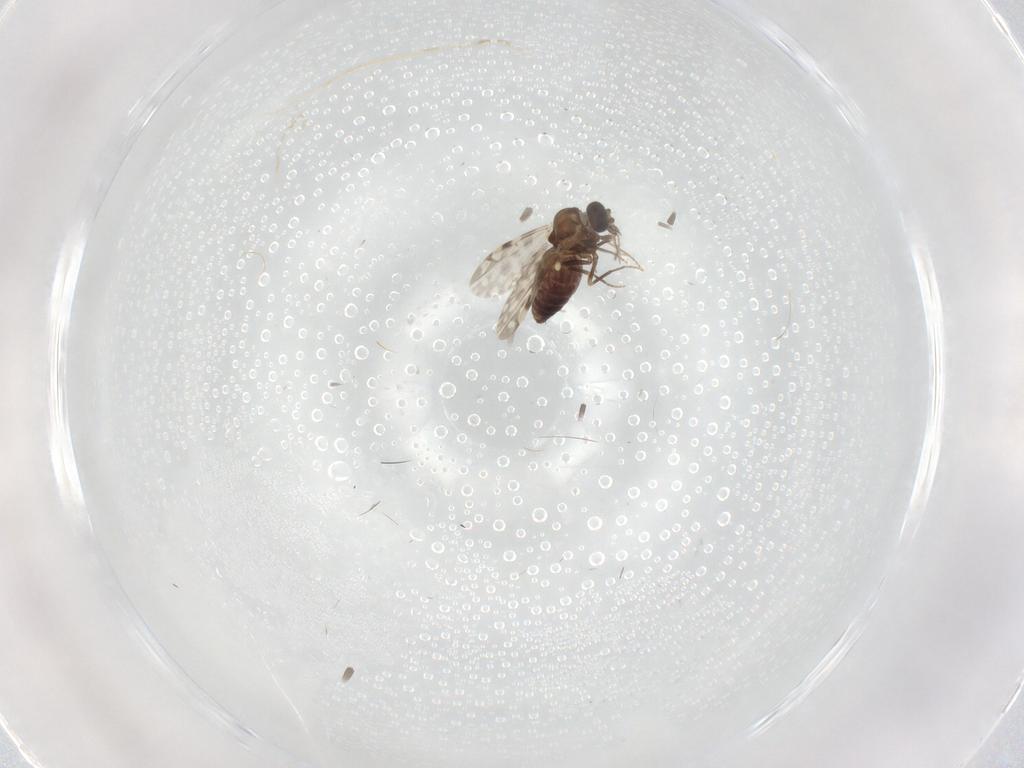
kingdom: Animalia
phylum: Arthropoda
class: Insecta
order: Diptera
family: Ceratopogonidae
